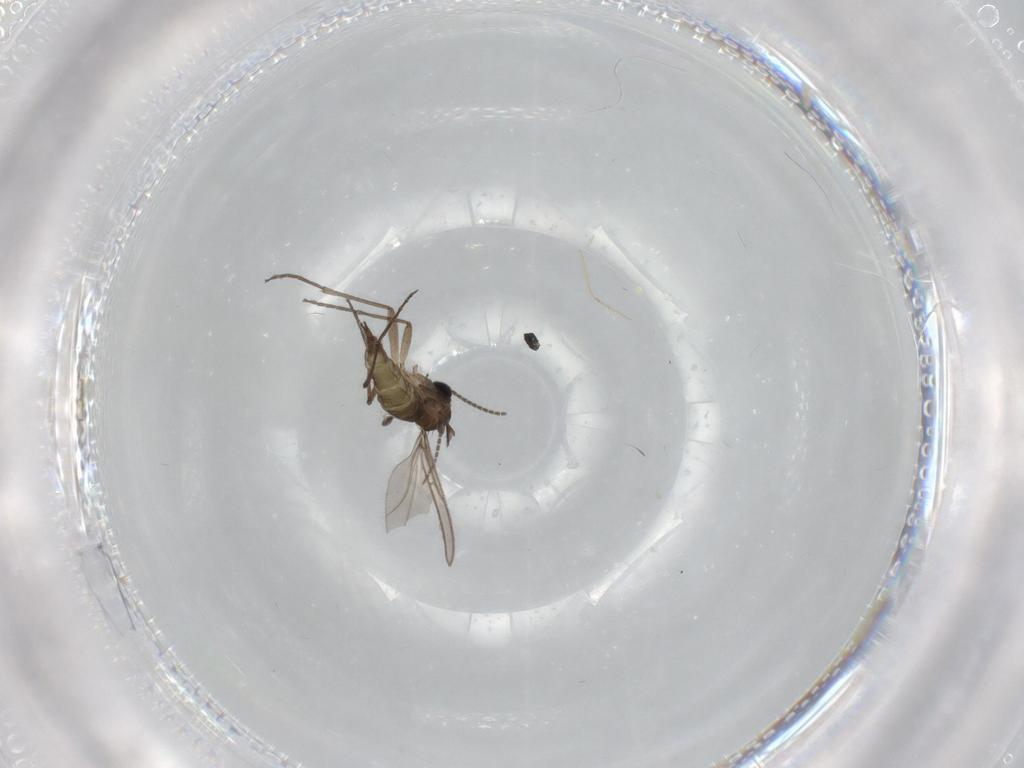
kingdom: Animalia
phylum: Arthropoda
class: Insecta
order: Diptera
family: Sciaridae
